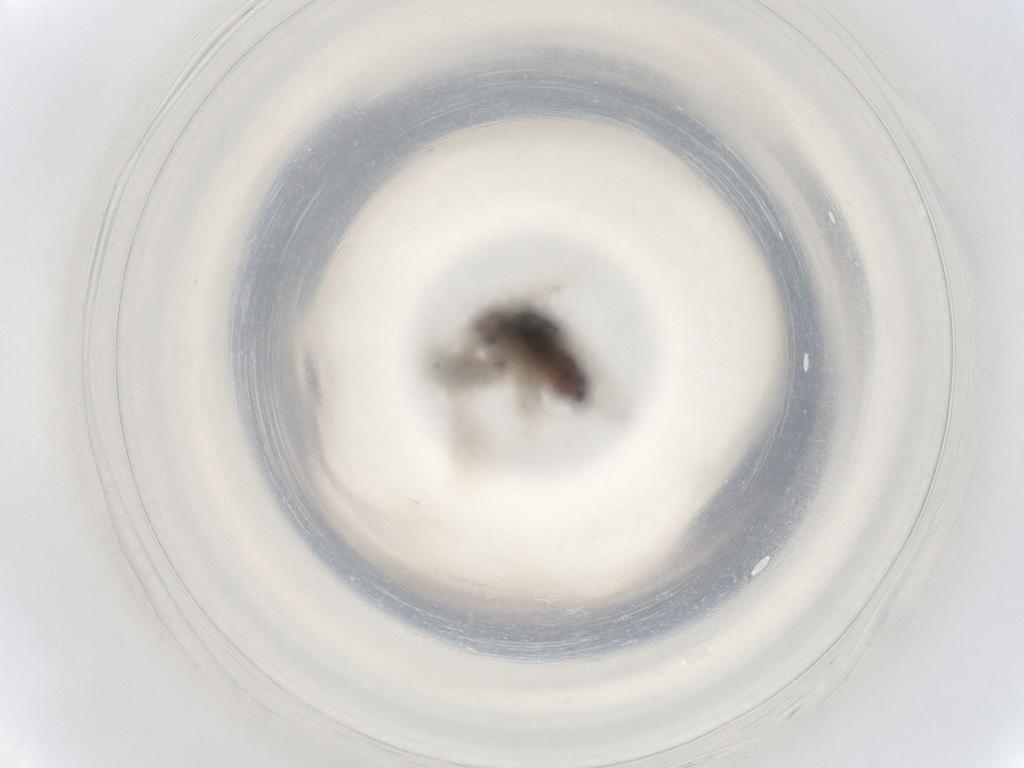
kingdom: Animalia
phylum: Arthropoda
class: Insecta
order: Diptera
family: Chloropidae
